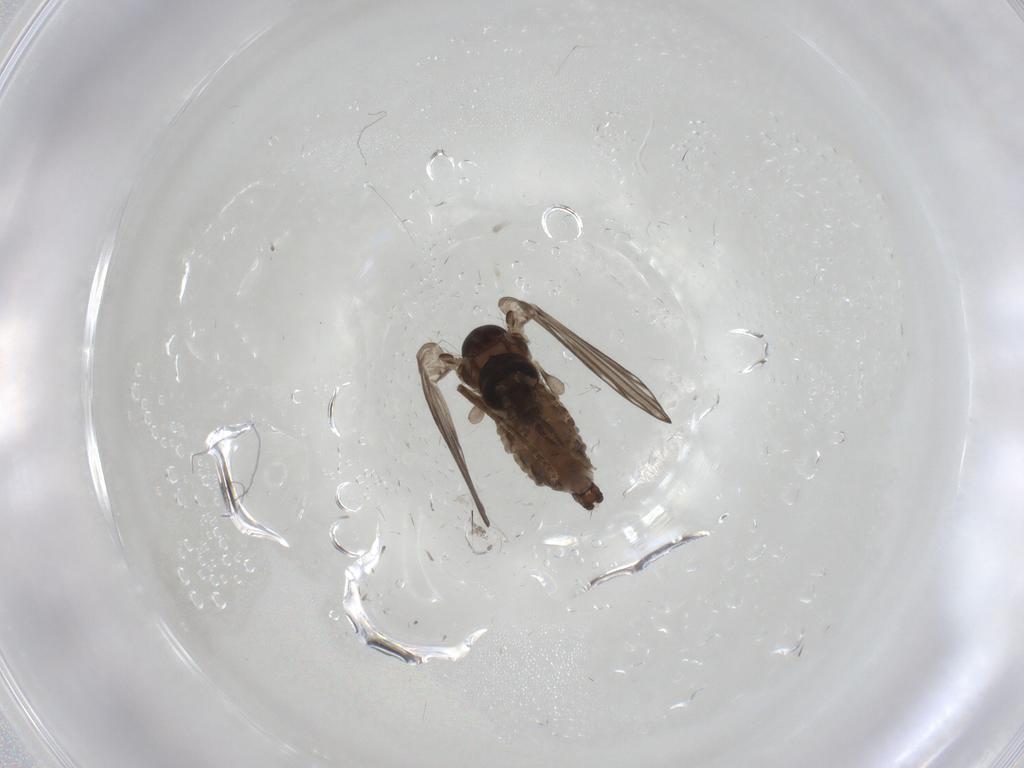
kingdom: Animalia
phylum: Arthropoda
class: Insecta
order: Diptera
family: Psychodidae
